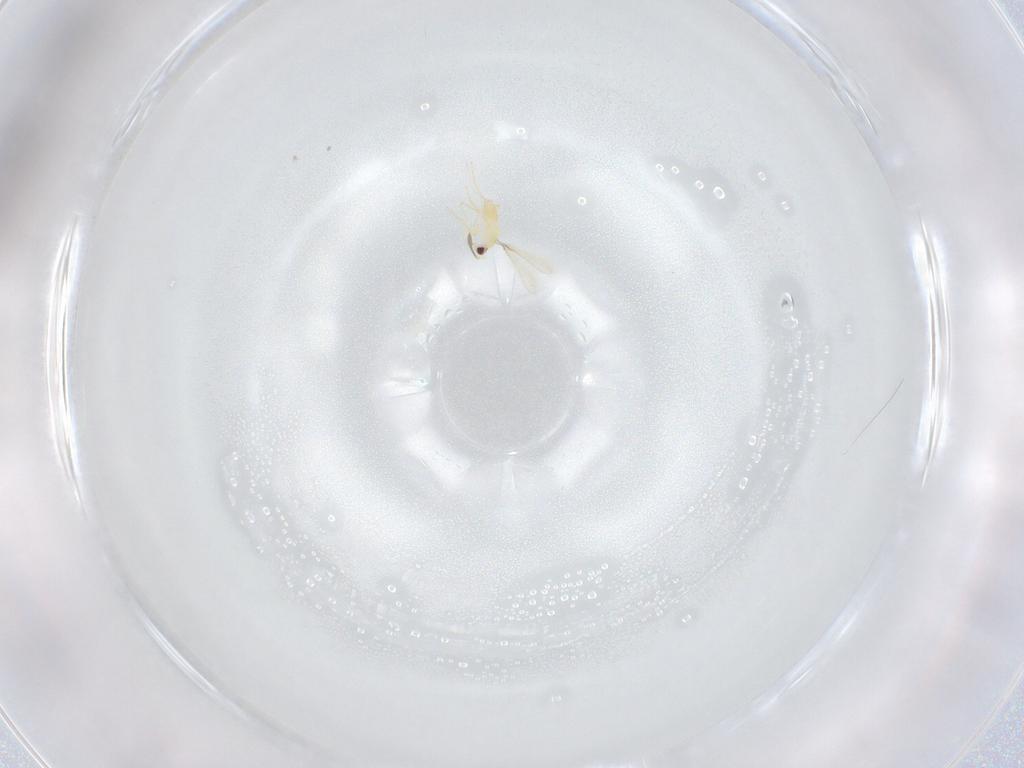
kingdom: Animalia
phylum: Arthropoda
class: Insecta
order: Hymenoptera
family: Mymaridae
